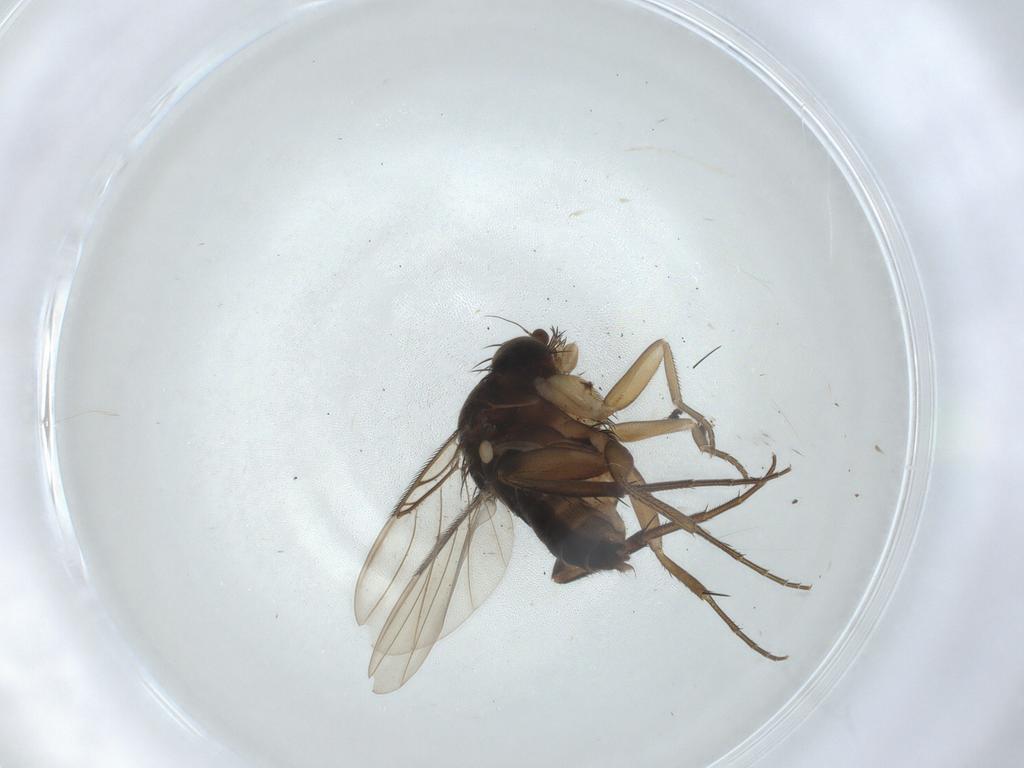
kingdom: Animalia
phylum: Arthropoda
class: Insecta
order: Diptera
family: Phoridae
